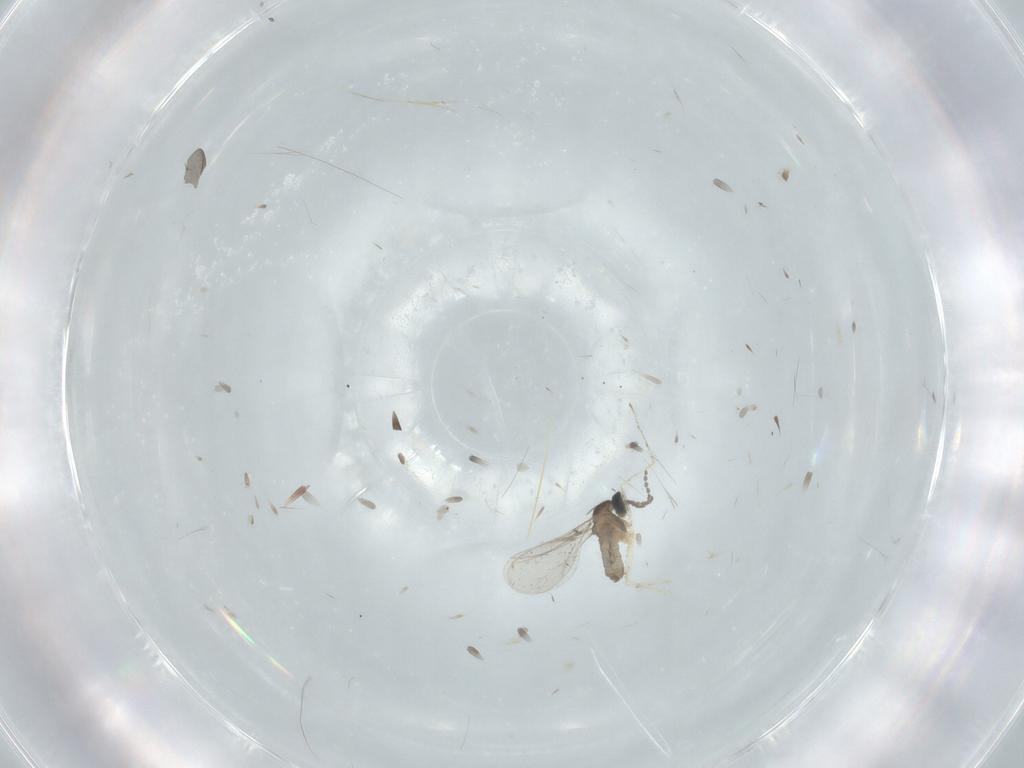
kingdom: Animalia
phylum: Arthropoda
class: Insecta
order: Diptera
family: Cecidomyiidae
